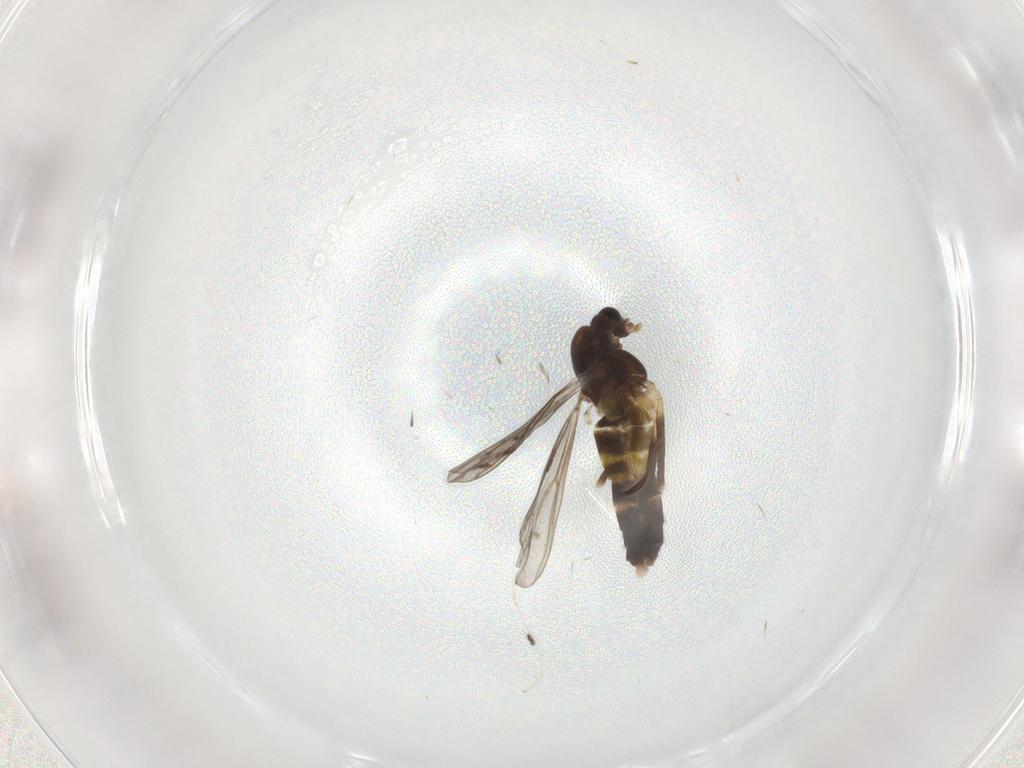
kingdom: Animalia
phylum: Arthropoda
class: Insecta
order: Diptera
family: Chironomidae
